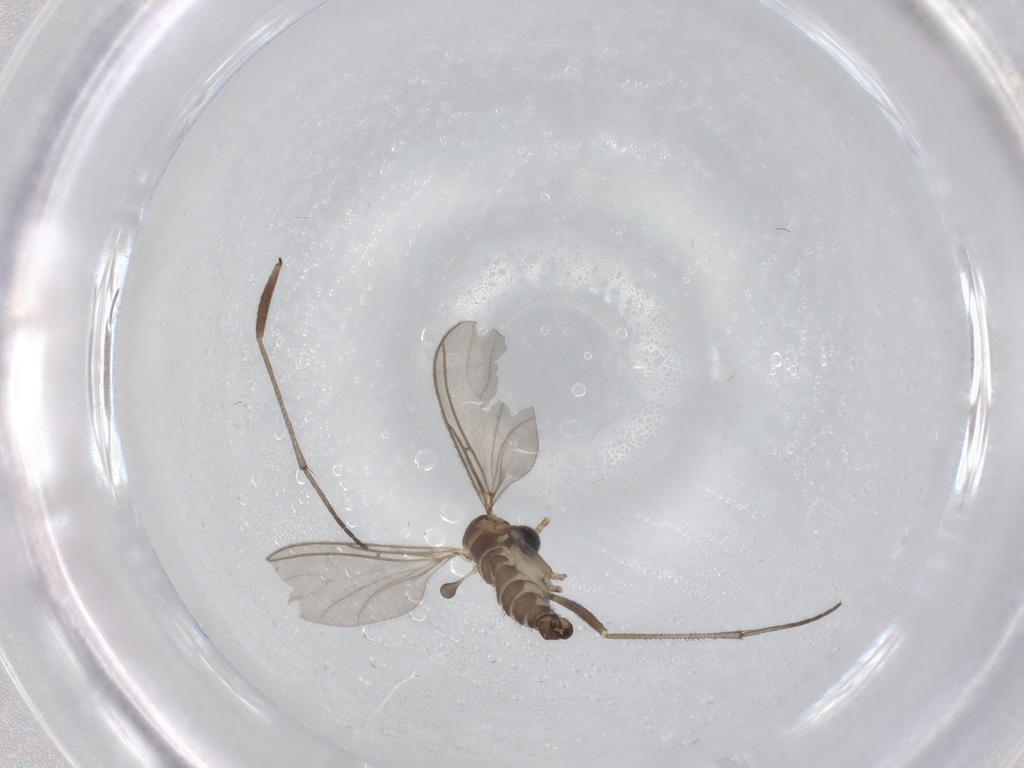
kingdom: Animalia
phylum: Arthropoda
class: Insecta
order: Diptera
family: Sciaridae
